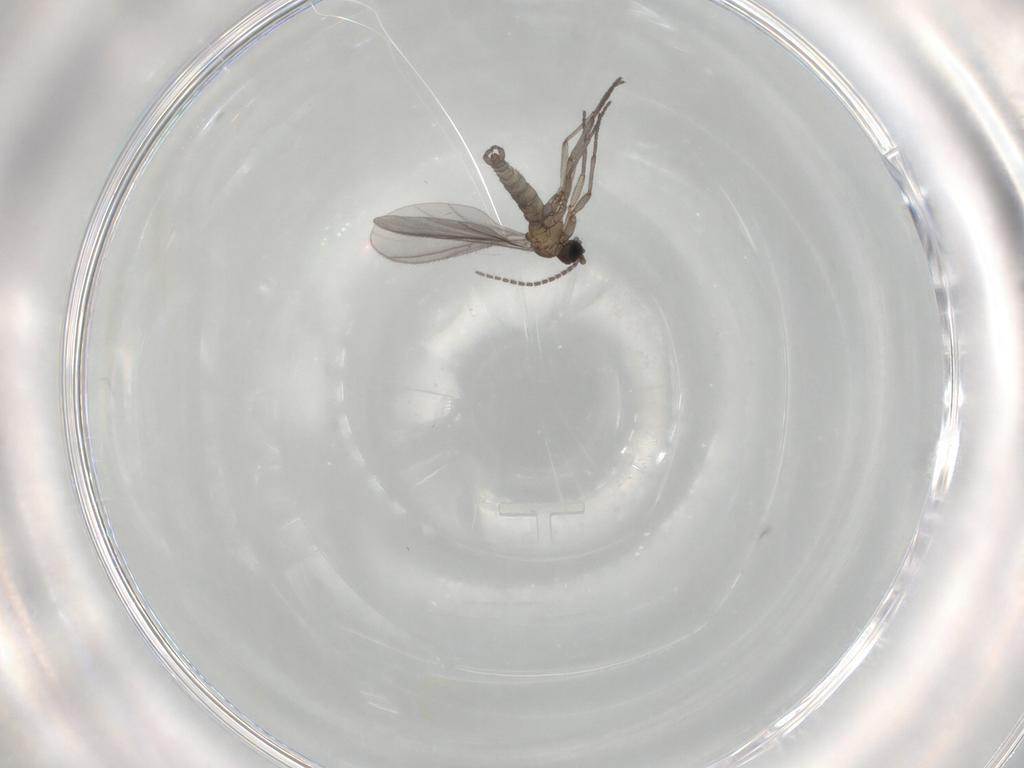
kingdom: Animalia
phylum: Arthropoda
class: Insecta
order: Diptera
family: Sciaridae
